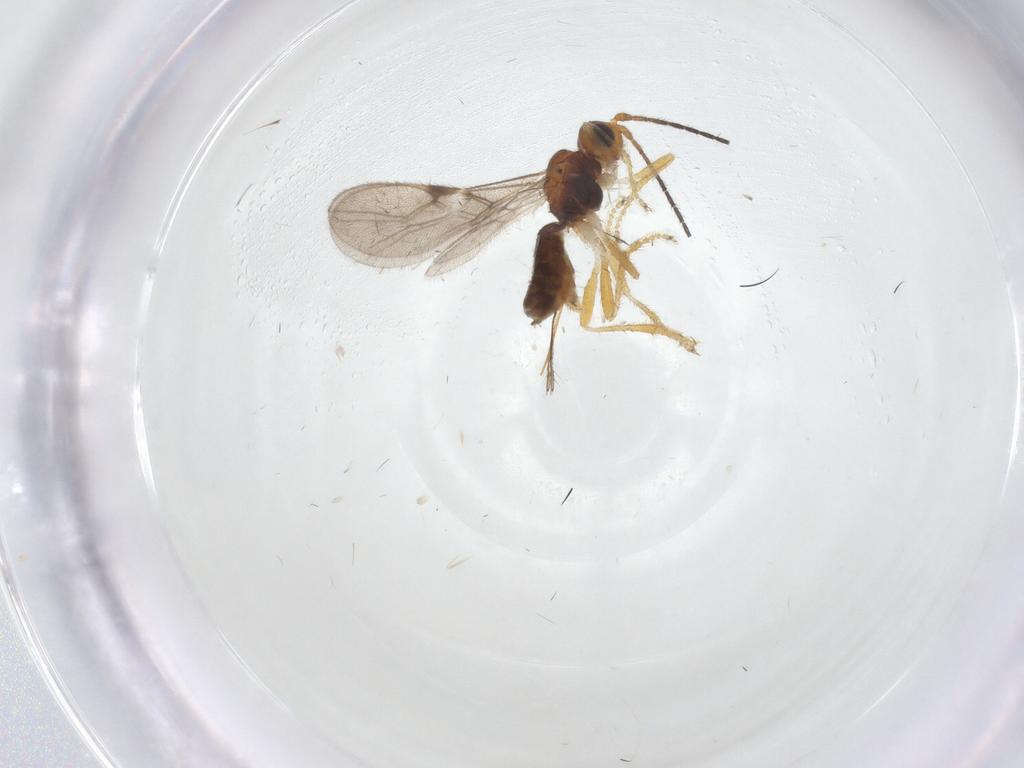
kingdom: Animalia
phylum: Arthropoda
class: Insecta
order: Hymenoptera
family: Braconidae
